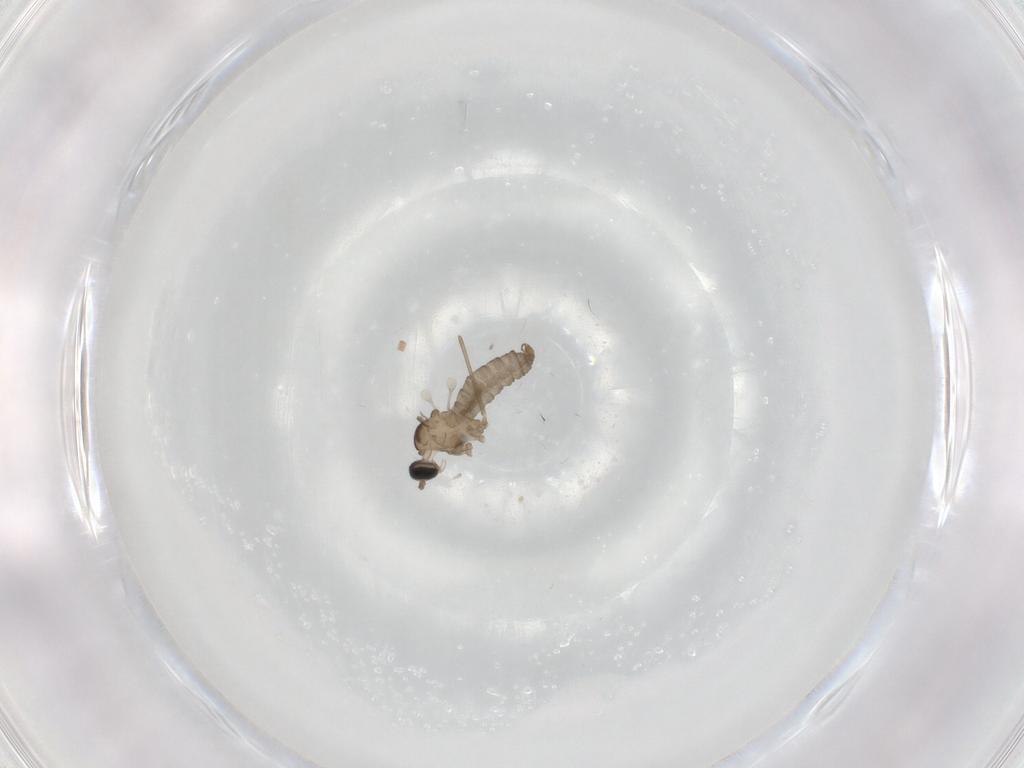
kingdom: Animalia
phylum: Arthropoda
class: Insecta
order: Diptera
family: Cecidomyiidae
